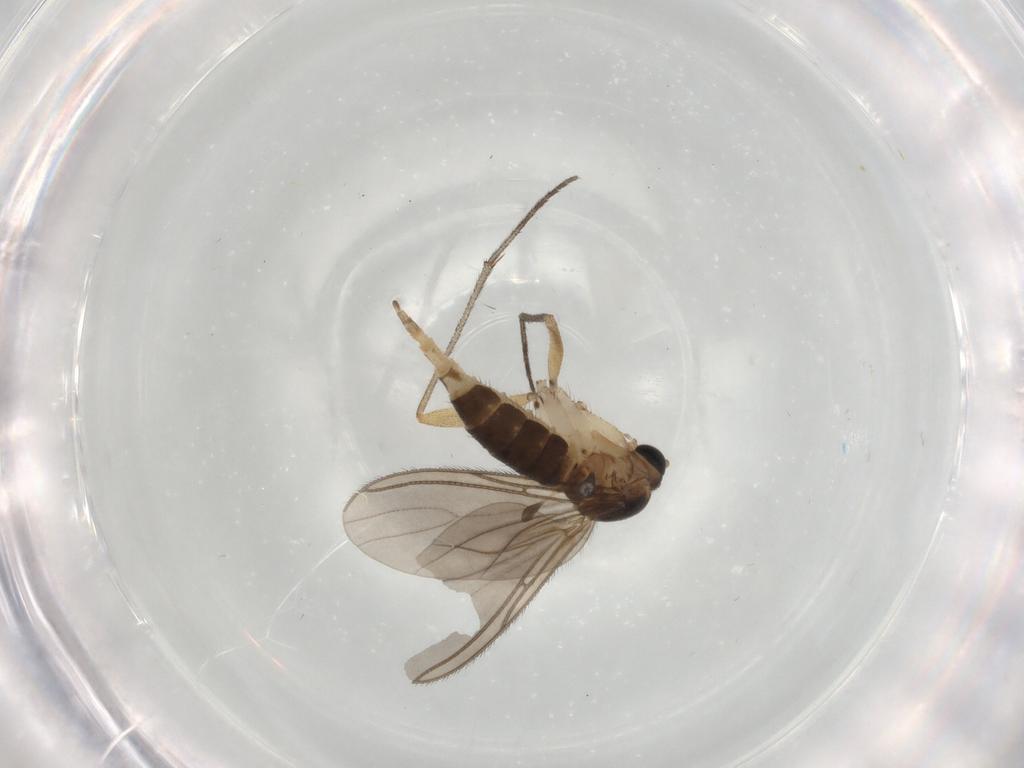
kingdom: Animalia
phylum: Arthropoda
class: Insecta
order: Diptera
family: Sciaridae
